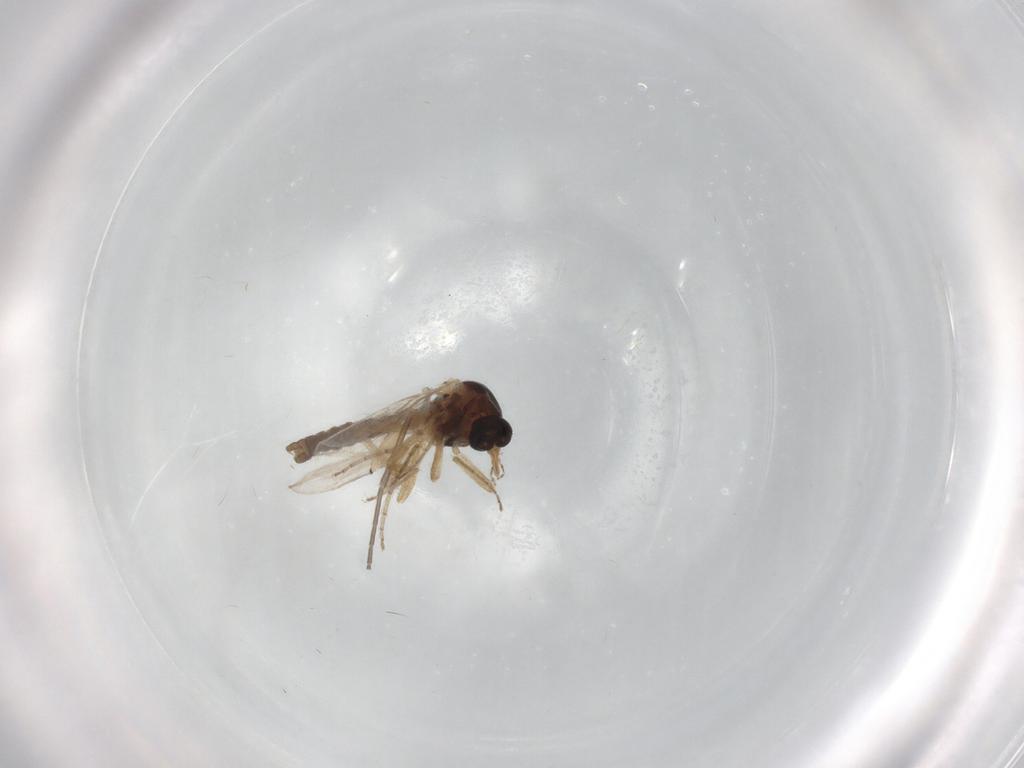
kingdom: Animalia
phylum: Arthropoda
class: Insecta
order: Diptera
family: Ceratopogonidae
